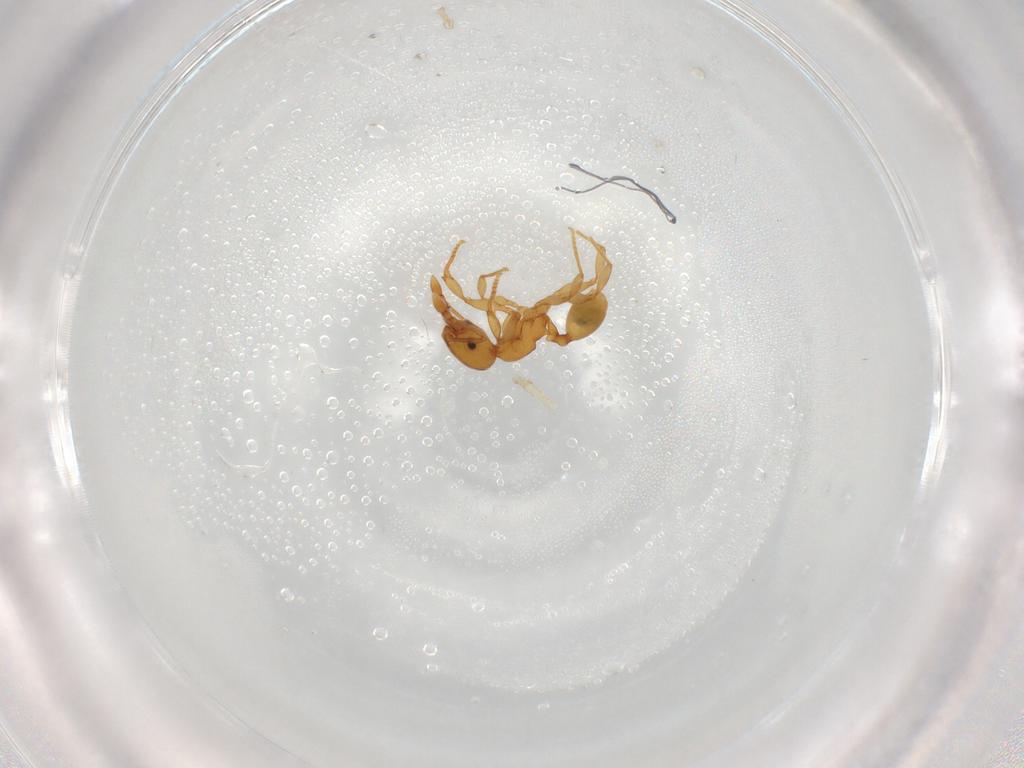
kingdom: Animalia
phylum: Arthropoda
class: Insecta
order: Hymenoptera
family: Formicidae
